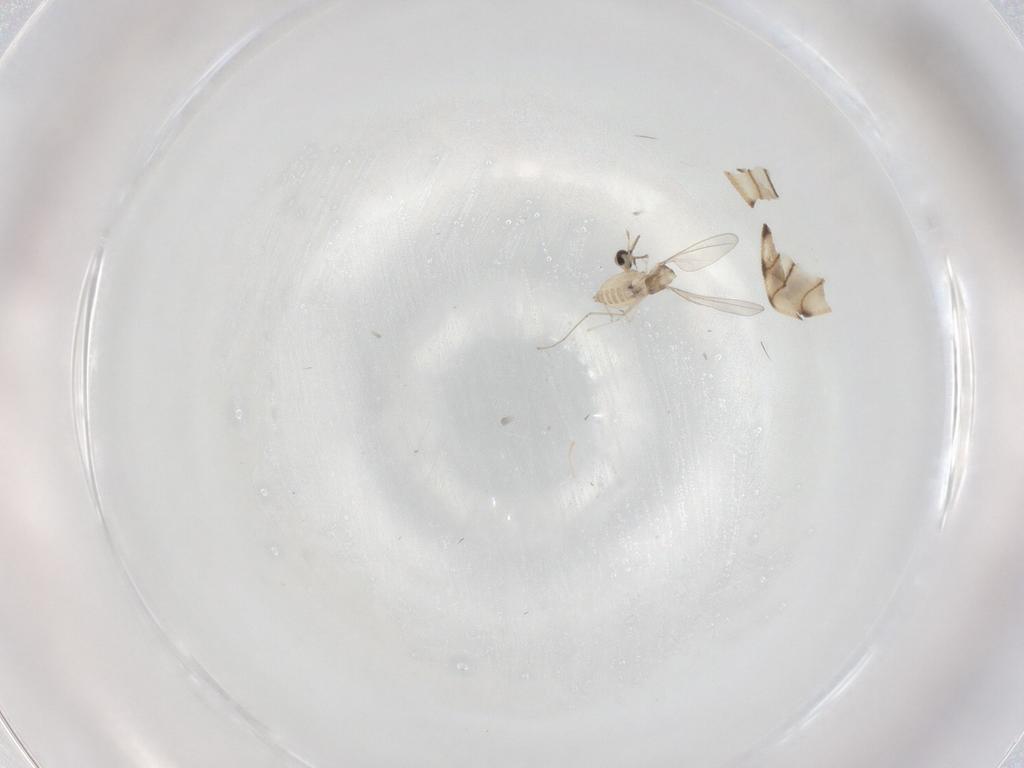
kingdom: Animalia
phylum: Arthropoda
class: Insecta
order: Diptera
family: Cecidomyiidae
